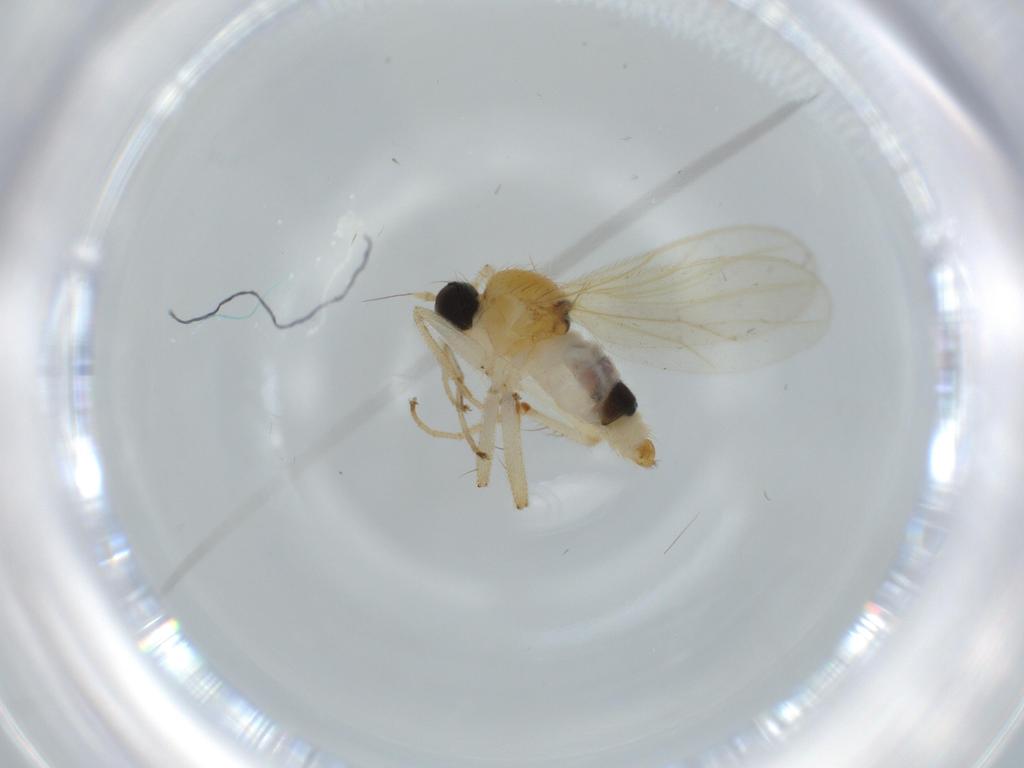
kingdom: Animalia
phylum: Arthropoda
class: Insecta
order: Diptera
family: Hybotidae
